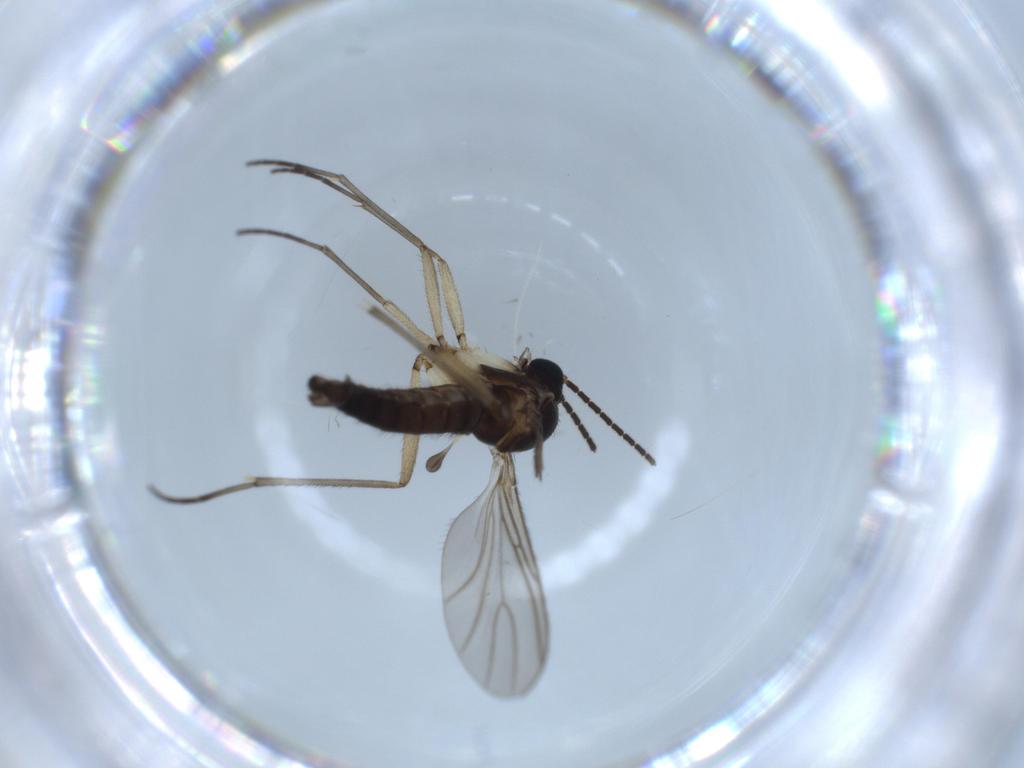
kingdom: Animalia
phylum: Arthropoda
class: Insecta
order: Diptera
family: Sciaridae
